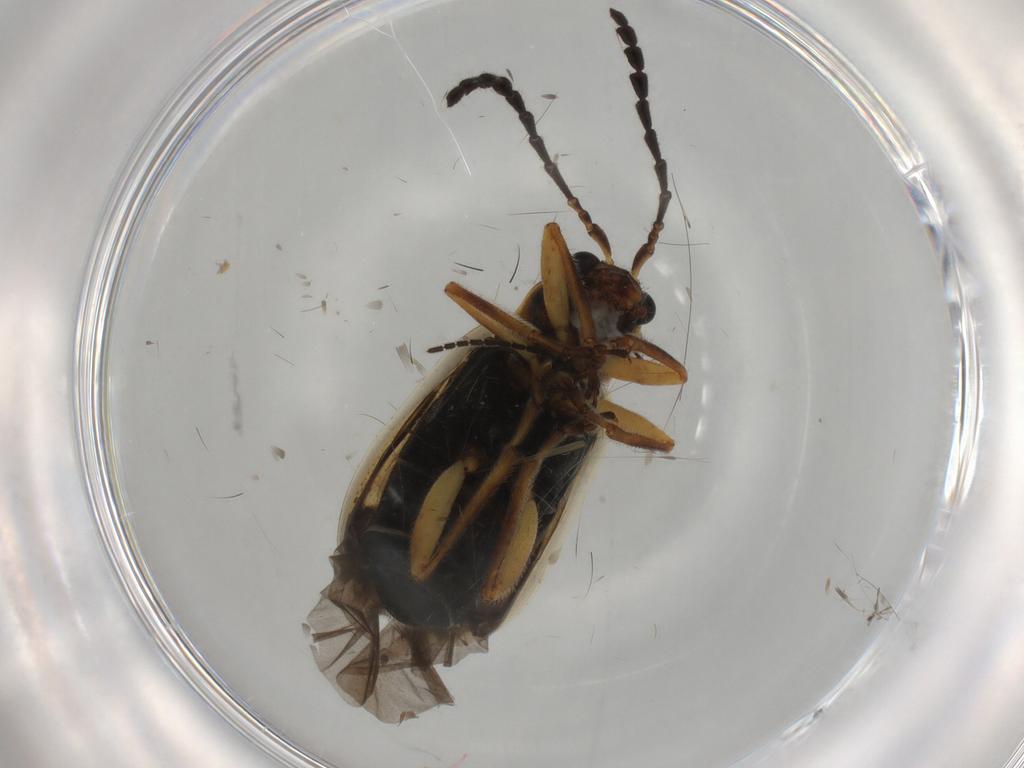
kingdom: Animalia
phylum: Arthropoda
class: Insecta
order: Coleoptera
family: Chrysomelidae
